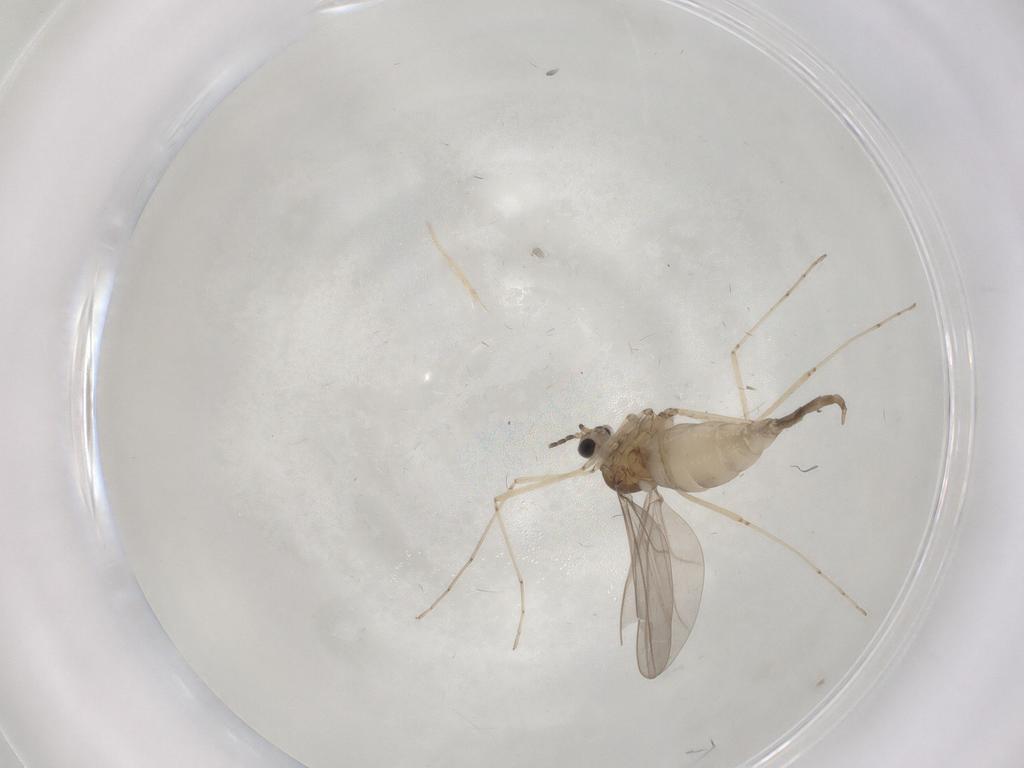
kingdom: Animalia
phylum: Arthropoda
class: Insecta
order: Diptera
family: Cecidomyiidae
